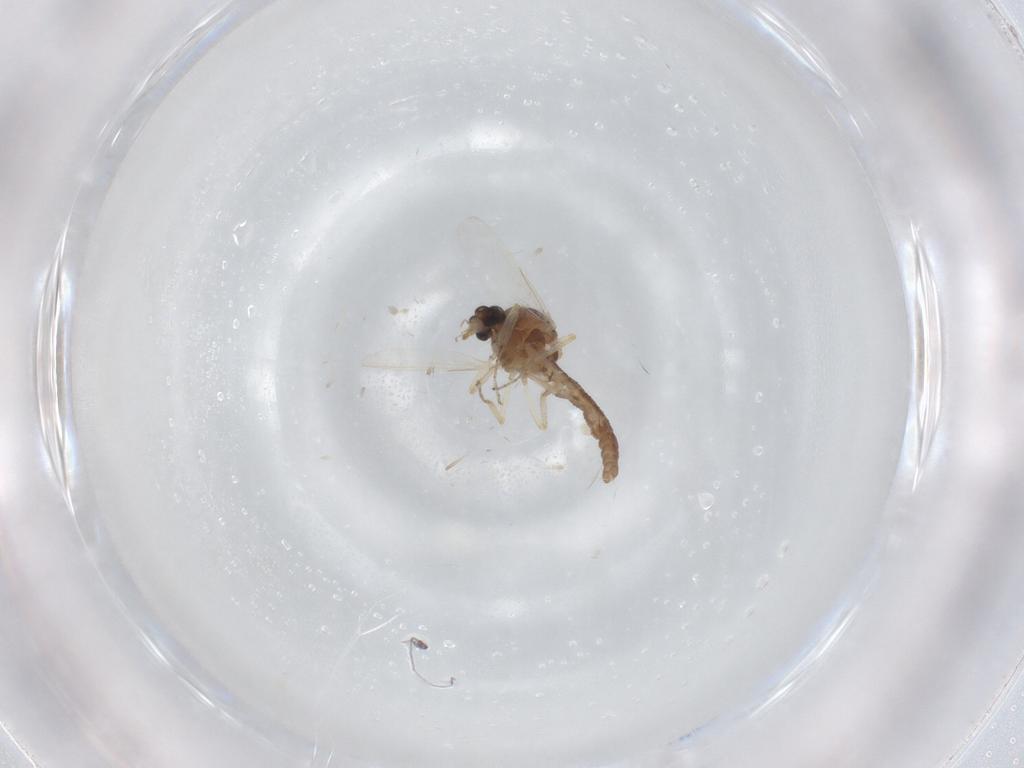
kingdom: Animalia
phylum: Arthropoda
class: Insecta
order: Diptera
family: Ceratopogonidae
